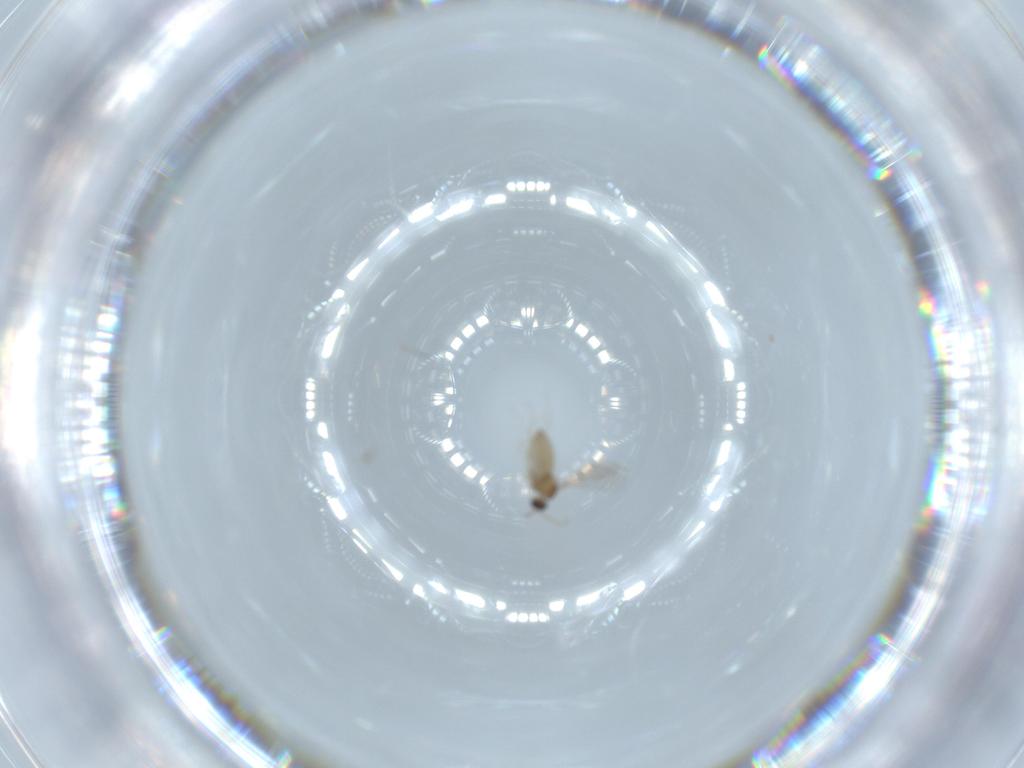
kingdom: Animalia
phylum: Arthropoda
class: Insecta
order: Diptera
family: Cecidomyiidae
